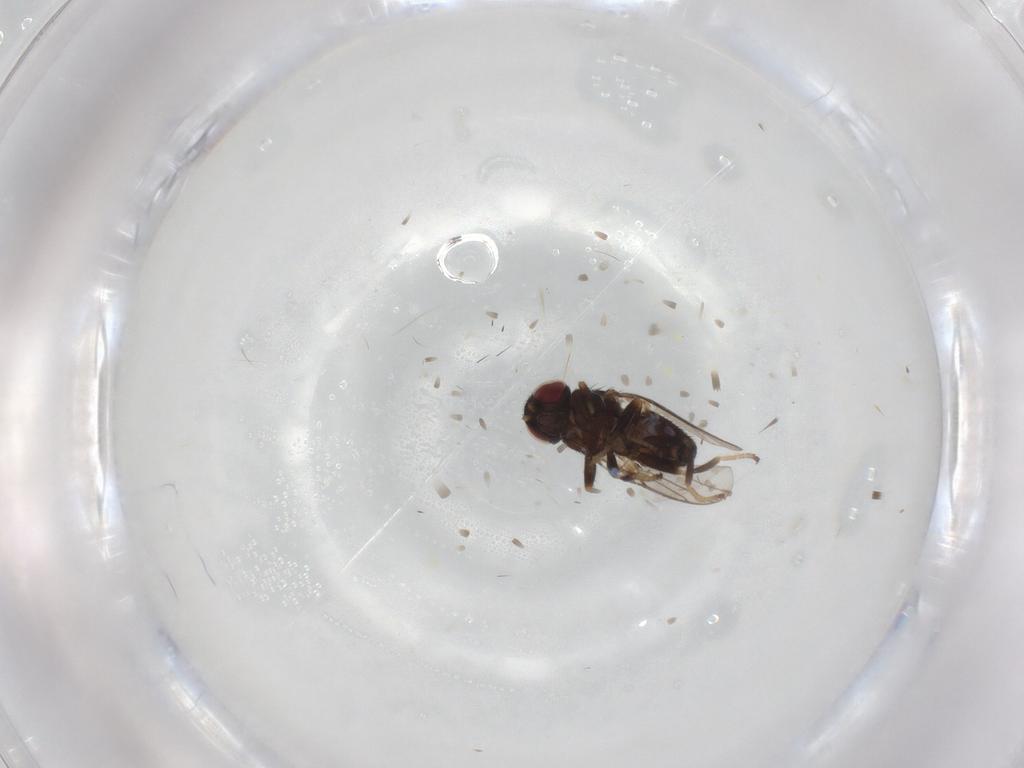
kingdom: Animalia
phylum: Arthropoda
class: Insecta
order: Diptera
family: Chloropidae
